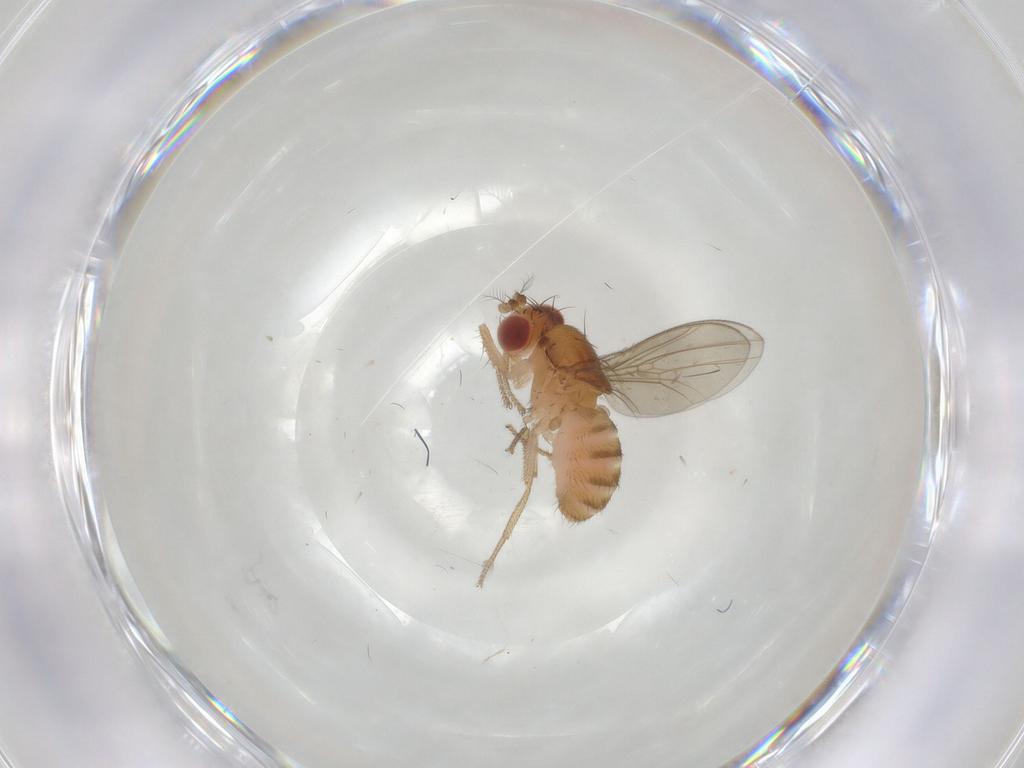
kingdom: Animalia
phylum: Arthropoda
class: Insecta
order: Diptera
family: Drosophilidae
